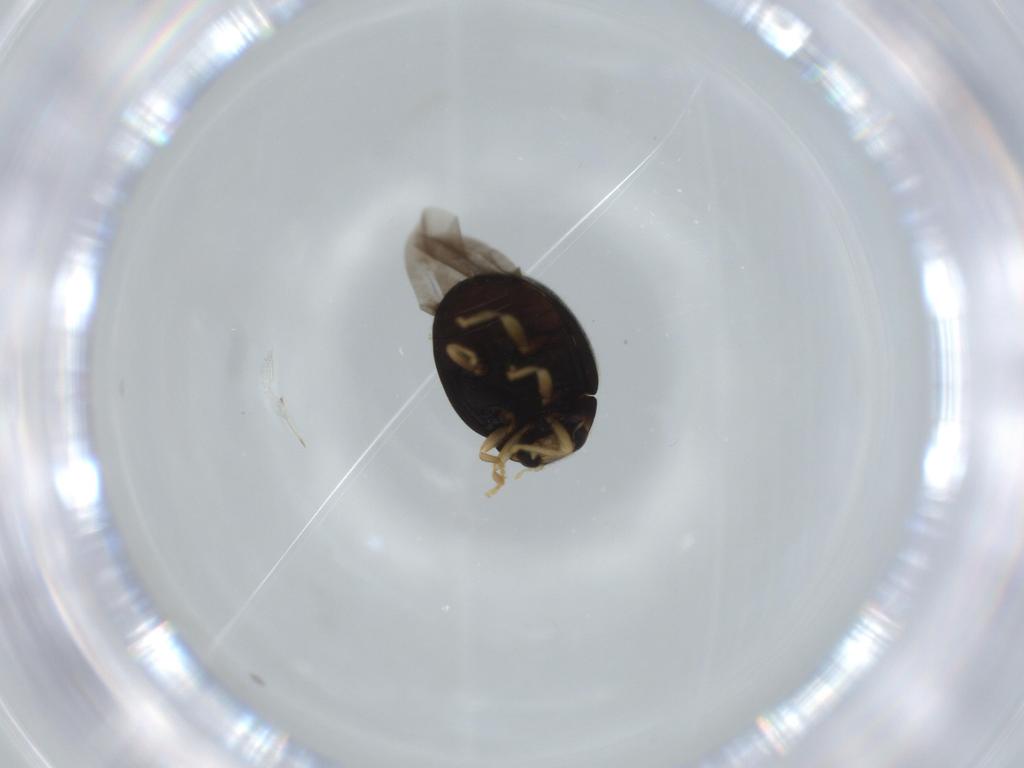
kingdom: Animalia
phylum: Arthropoda
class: Insecta
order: Coleoptera
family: Coccinellidae
